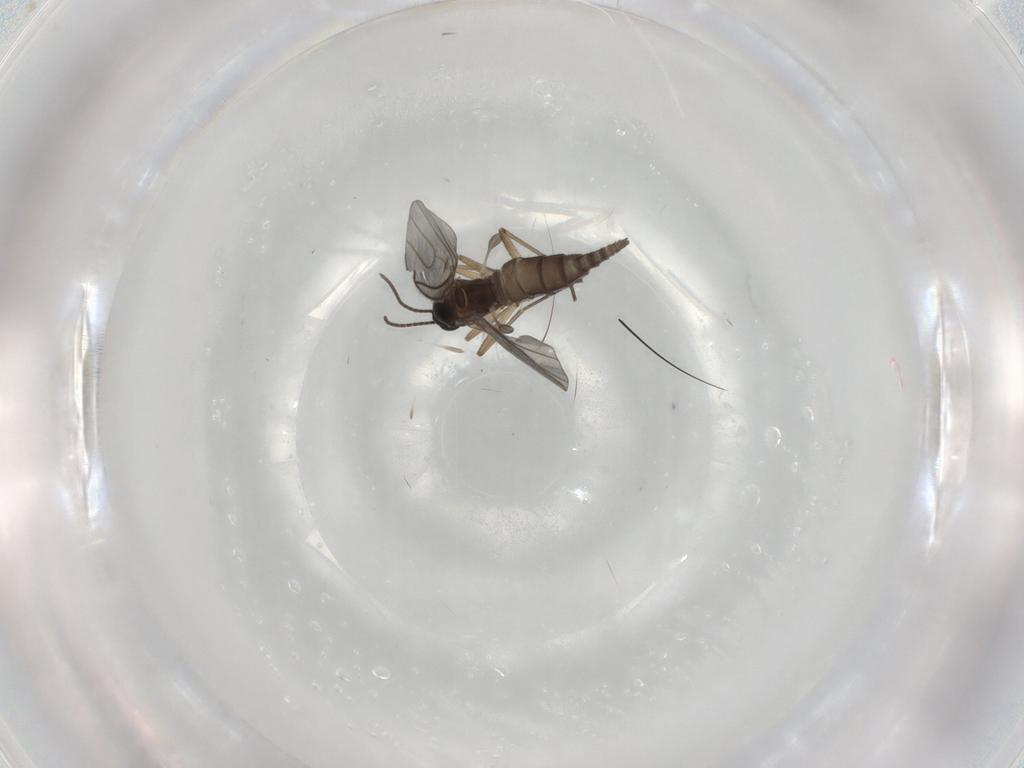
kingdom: Animalia
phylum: Arthropoda
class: Insecta
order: Diptera
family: Sciaridae
